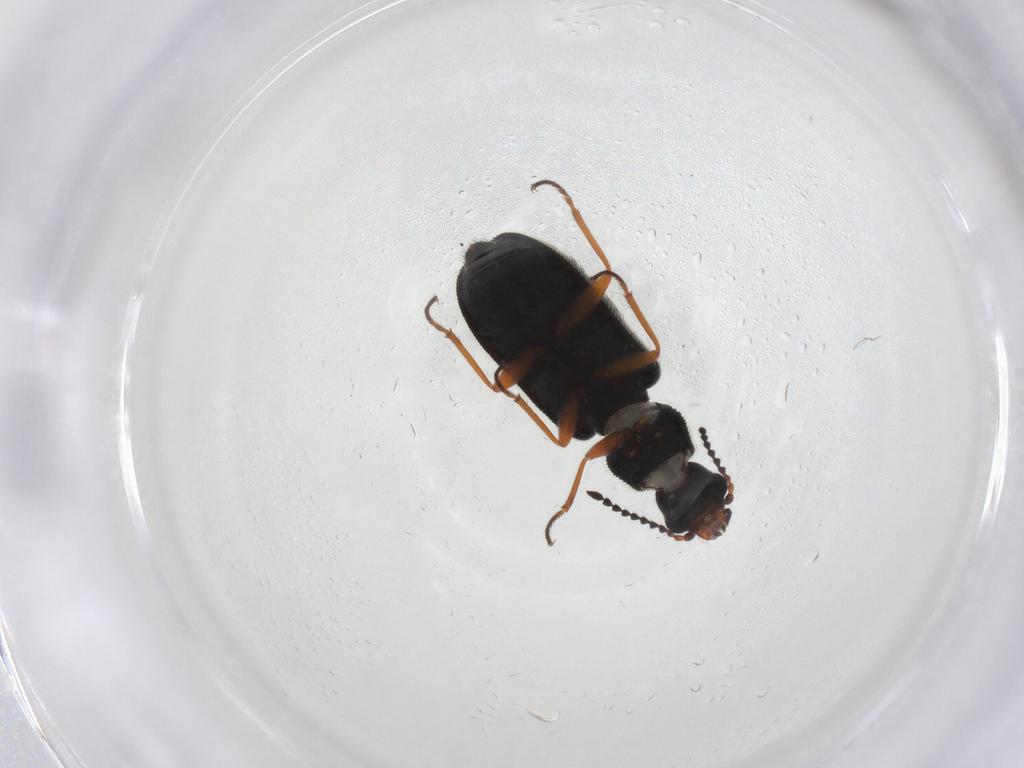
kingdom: Animalia
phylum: Arthropoda
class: Insecta
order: Coleoptera
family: Melyridae
